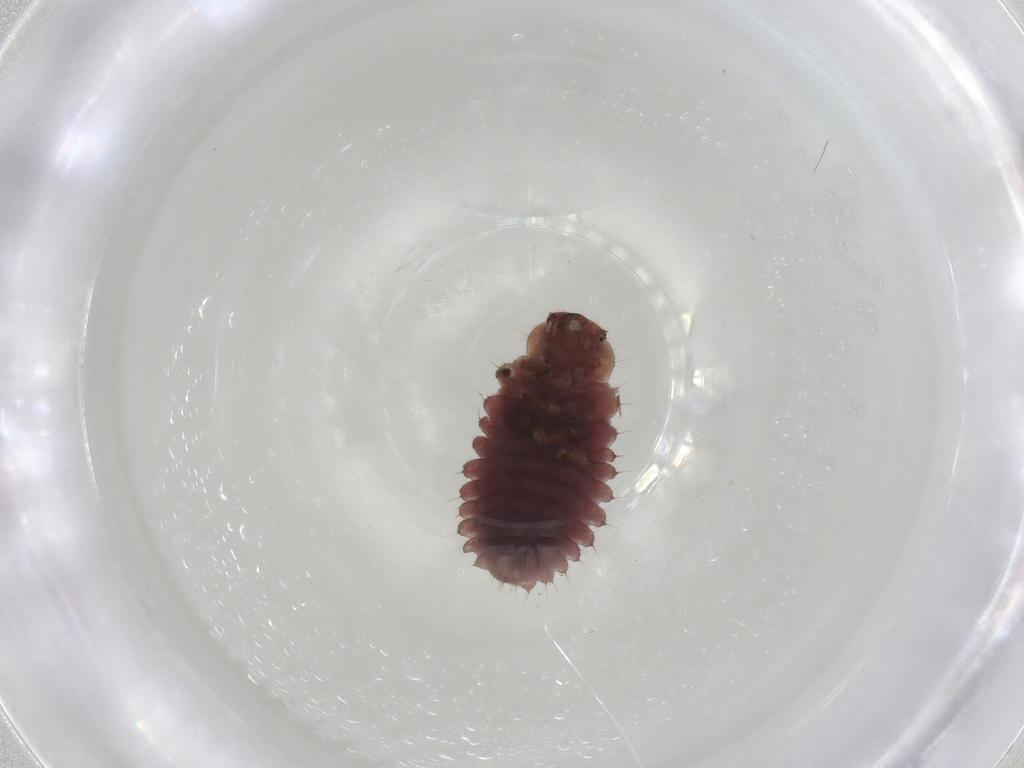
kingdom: Animalia
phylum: Arthropoda
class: Insecta
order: Coleoptera
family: Coccinellidae
